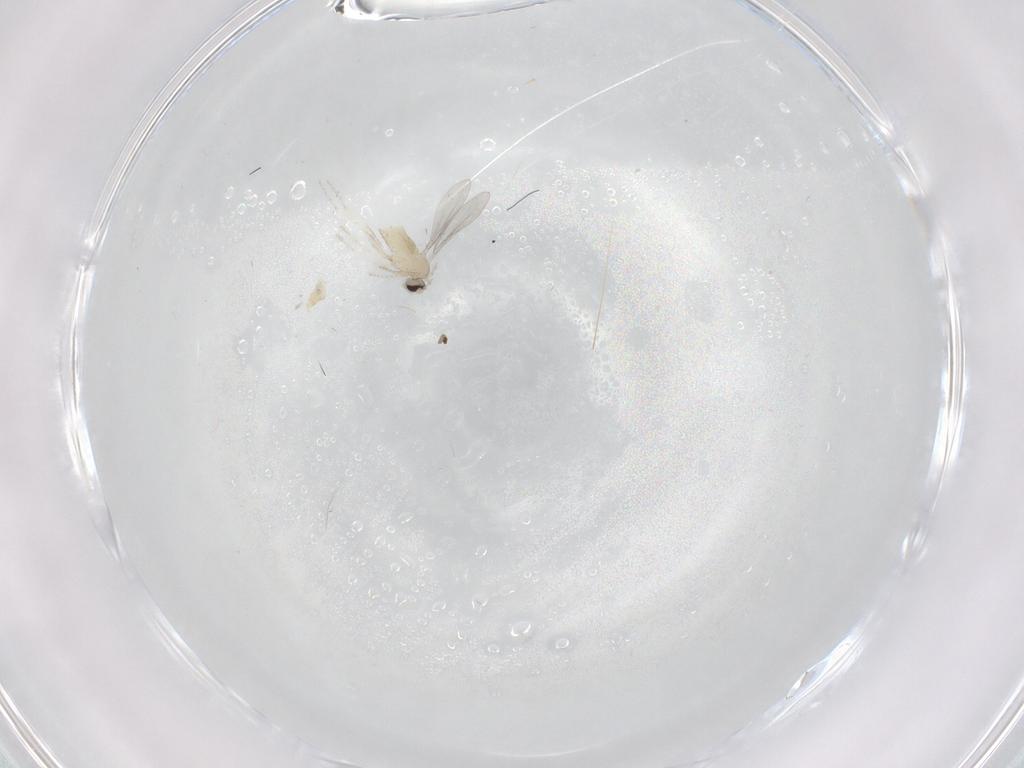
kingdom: Animalia
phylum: Arthropoda
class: Insecta
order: Diptera
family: Cecidomyiidae
